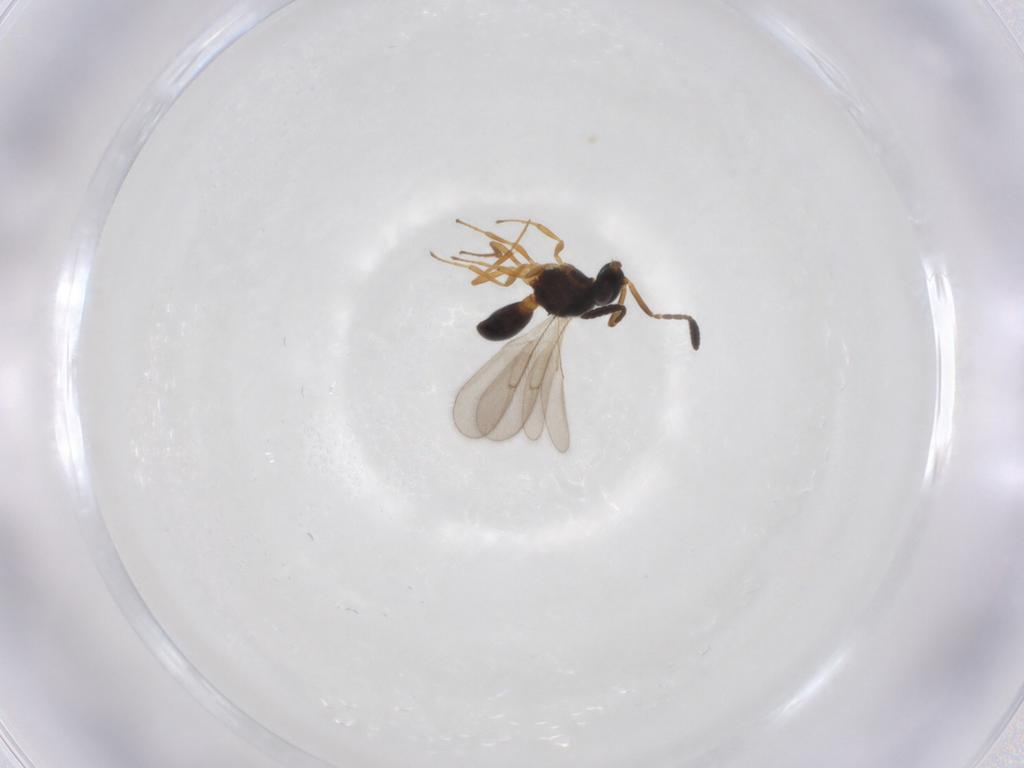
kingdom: Animalia
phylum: Arthropoda
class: Insecta
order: Hymenoptera
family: Scelionidae
